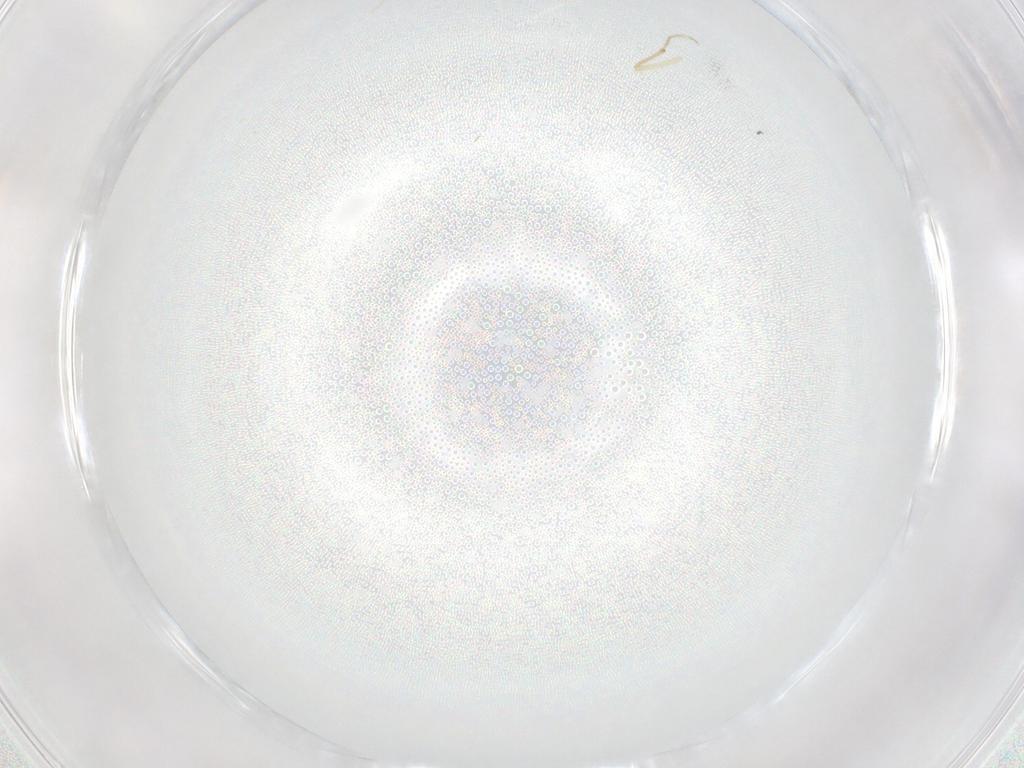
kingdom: Animalia
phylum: Arthropoda
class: Insecta
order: Diptera
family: Chironomidae
